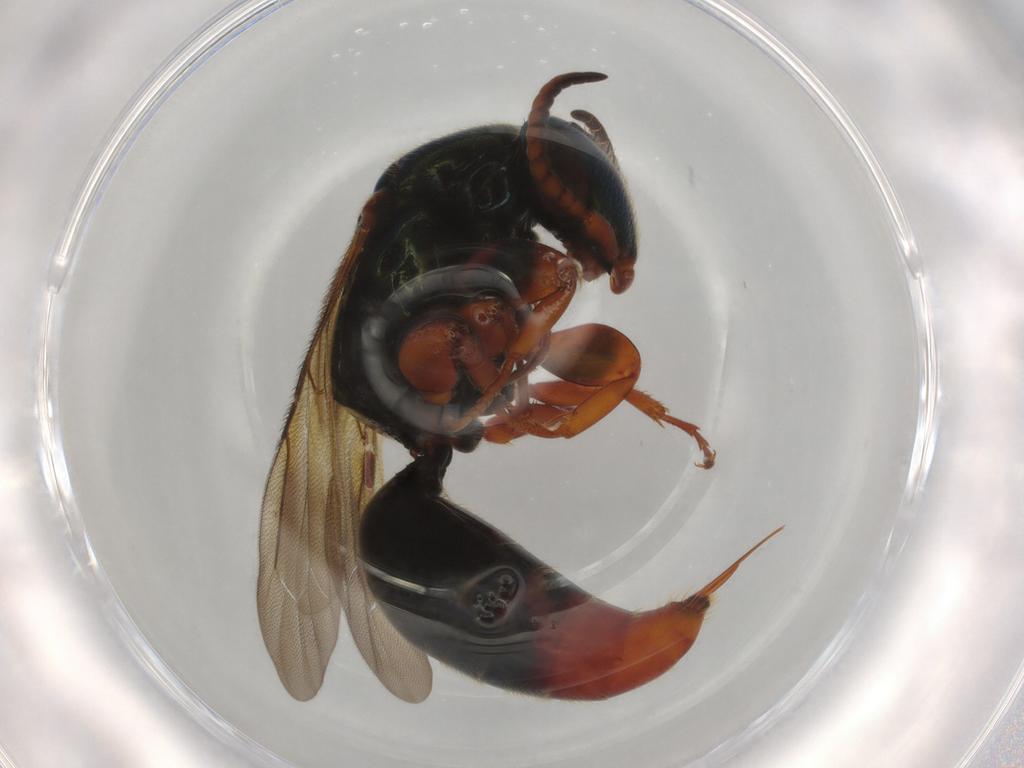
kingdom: Animalia
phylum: Arthropoda
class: Insecta
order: Hymenoptera
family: Bethylidae
